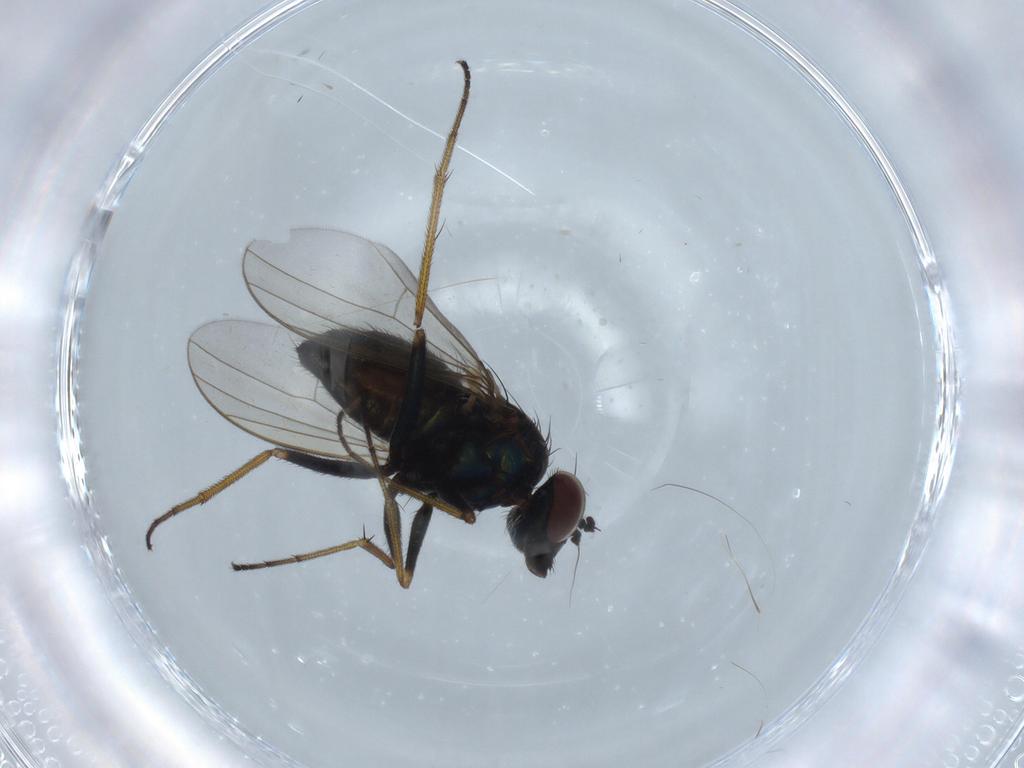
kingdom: Animalia
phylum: Arthropoda
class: Insecta
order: Diptera
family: Dolichopodidae
